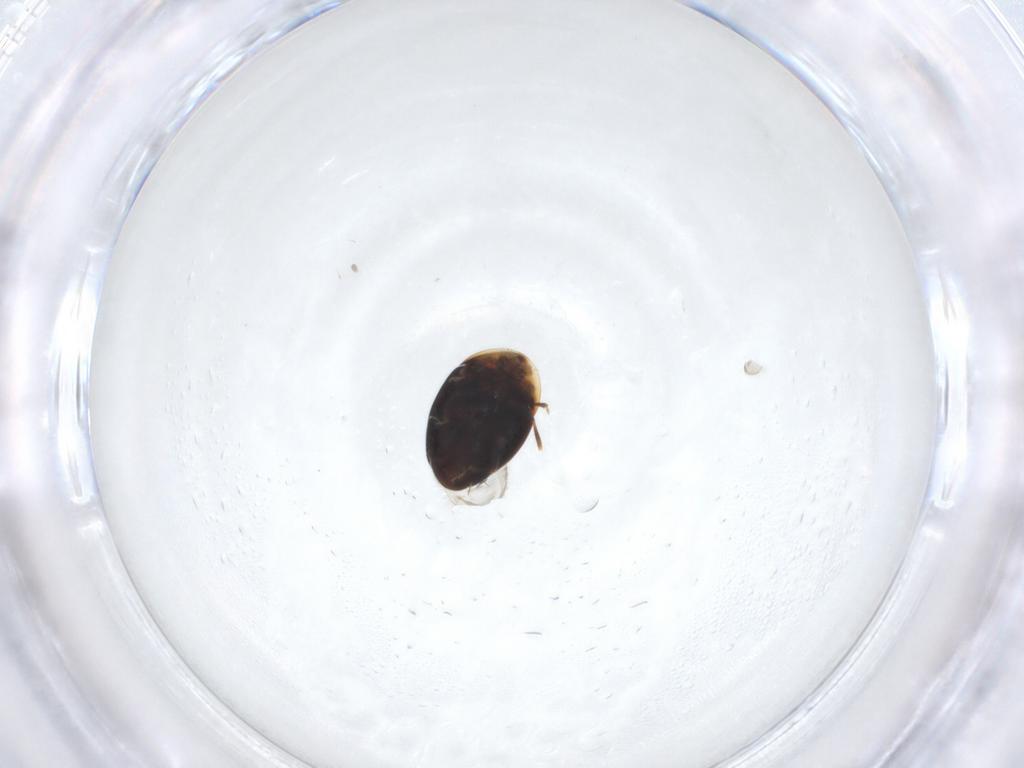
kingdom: Animalia
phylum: Arthropoda
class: Insecta
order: Coleoptera
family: Corylophidae
